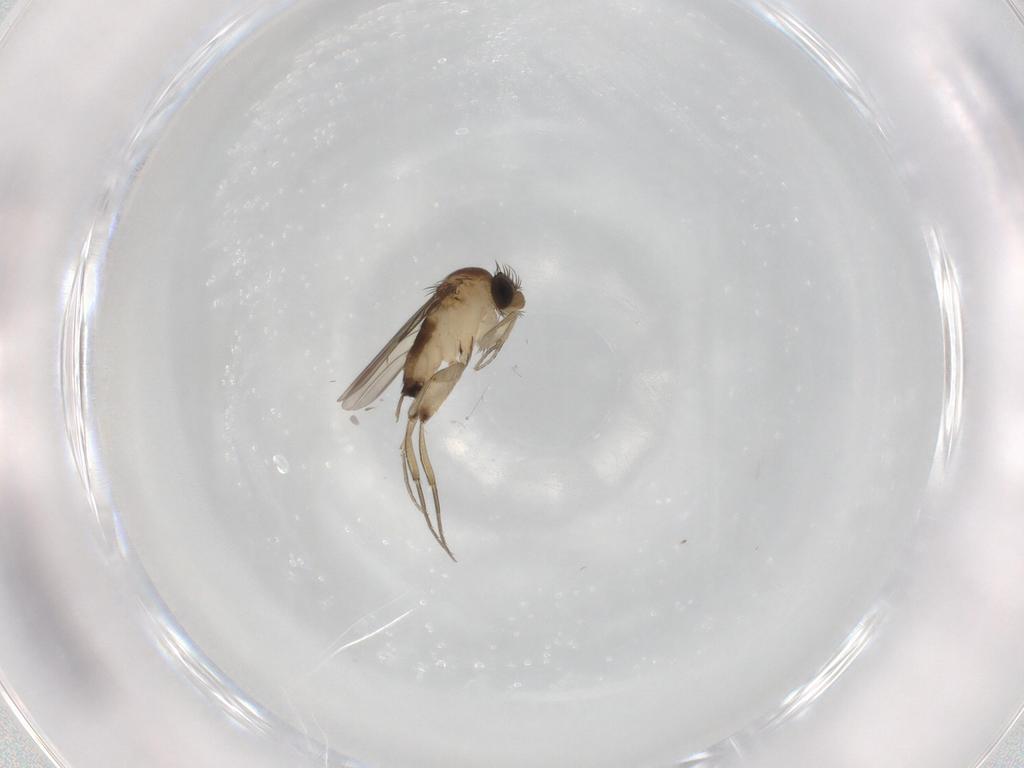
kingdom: Animalia
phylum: Arthropoda
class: Insecta
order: Diptera
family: Phoridae
